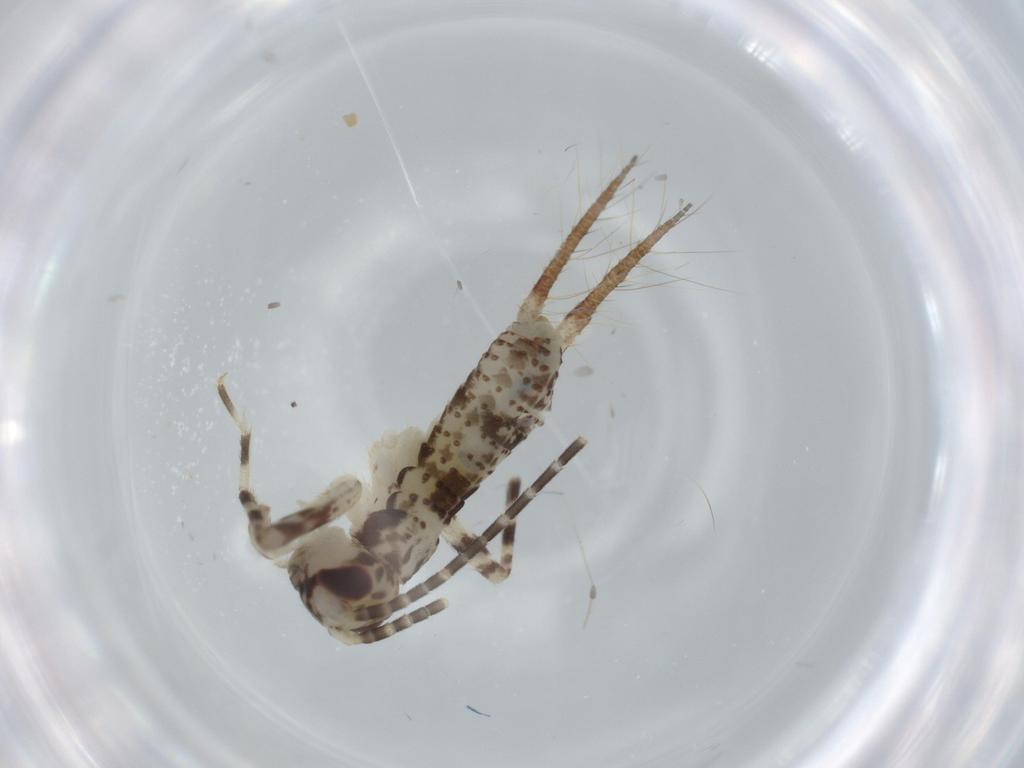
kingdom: Animalia
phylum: Arthropoda
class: Insecta
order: Orthoptera
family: Gryllidae
